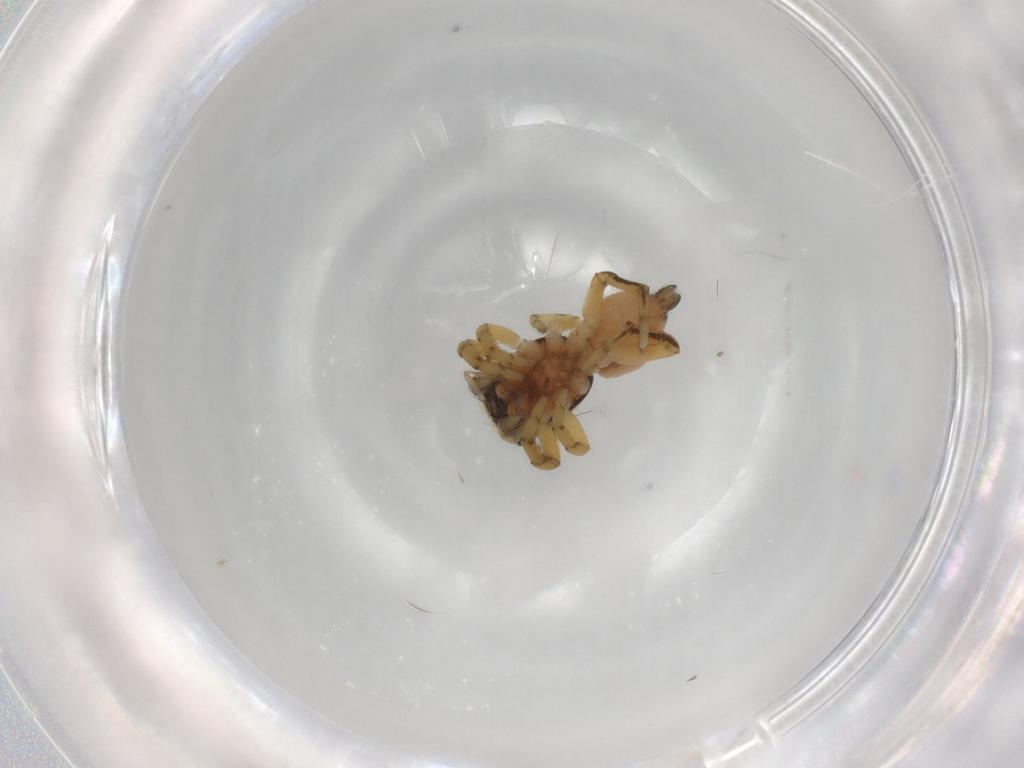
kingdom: Animalia
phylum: Arthropoda
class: Arachnida
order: Araneae
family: Salticidae
